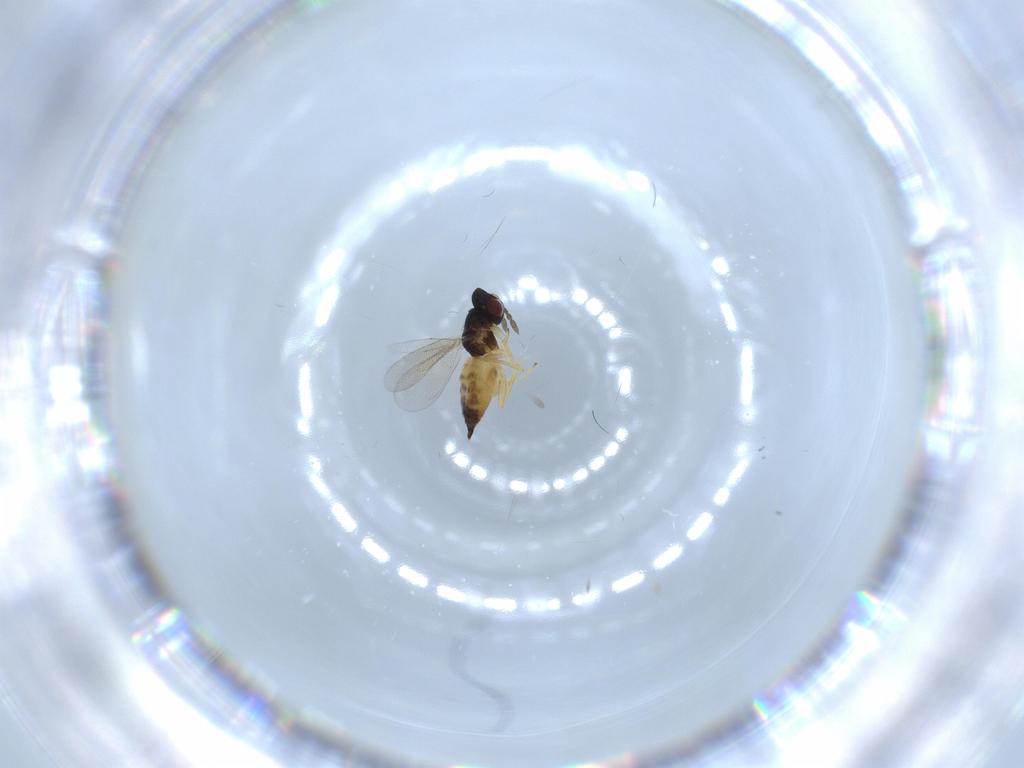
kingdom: Animalia
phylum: Arthropoda
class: Insecta
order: Hymenoptera
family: Eulophidae
